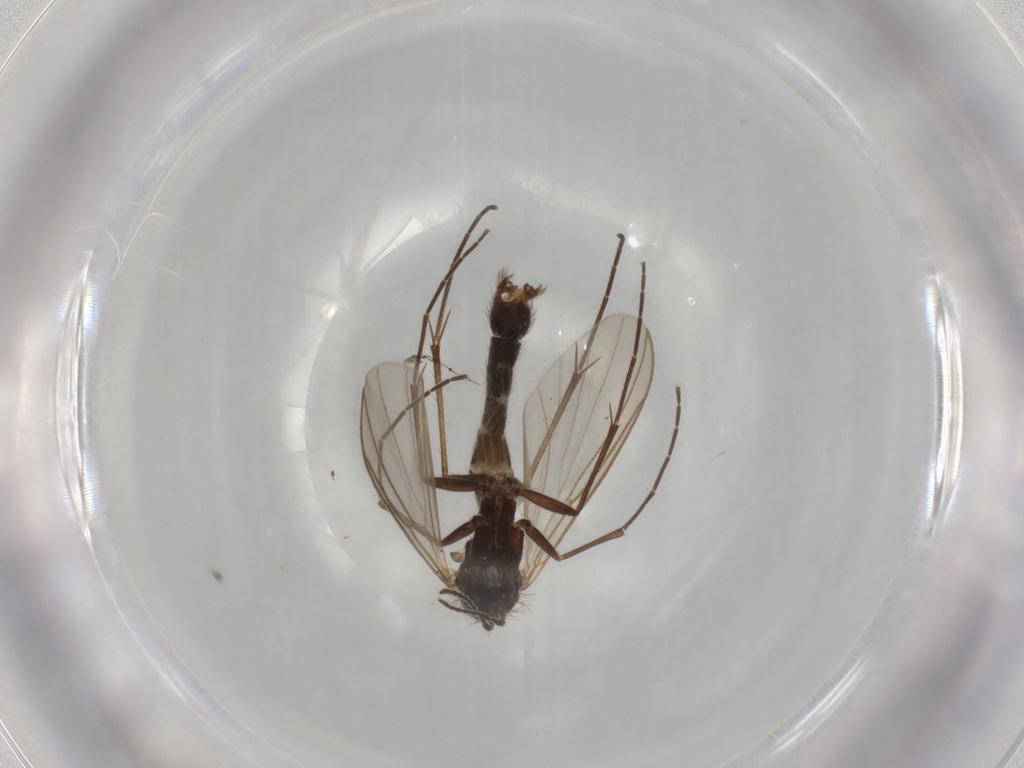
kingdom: Animalia
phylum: Arthropoda
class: Insecta
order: Diptera
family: Mycetophilidae
